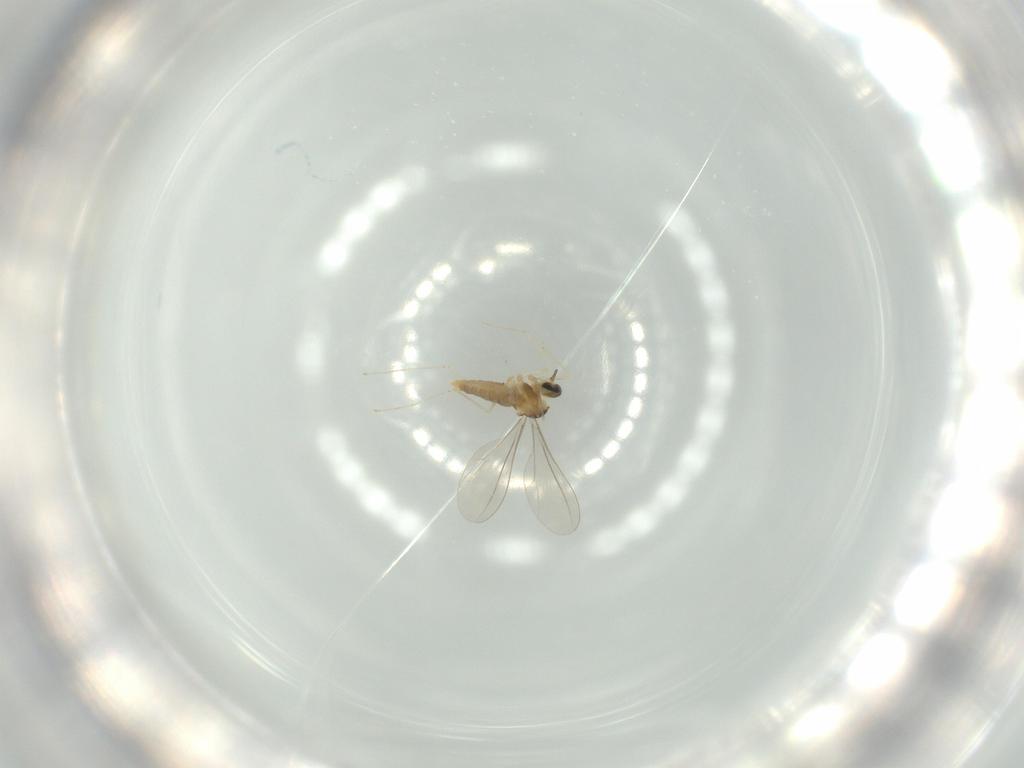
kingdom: Animalia
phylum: Arthropoda
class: Insecta
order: Diptera
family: Cecidomyiidae
